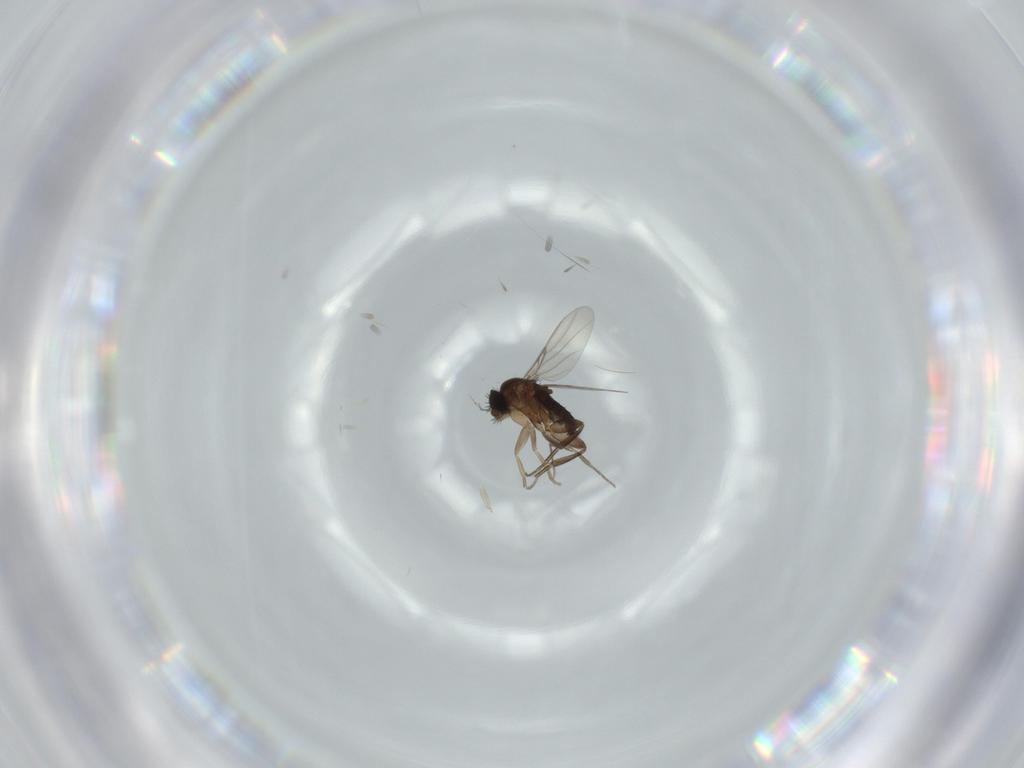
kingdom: Animalia
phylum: Arthropoda
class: Insecta
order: Diptera
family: Phoridae
